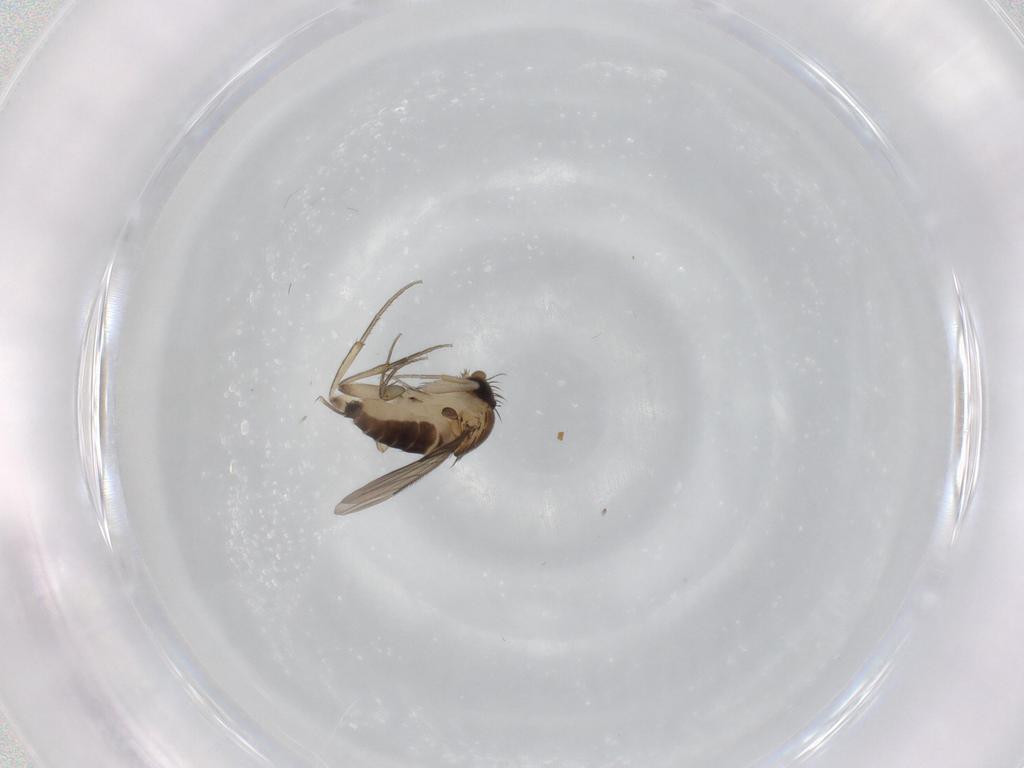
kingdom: Animalia
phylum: Arthropoda
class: Insecta
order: Diptera
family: Phoridae
